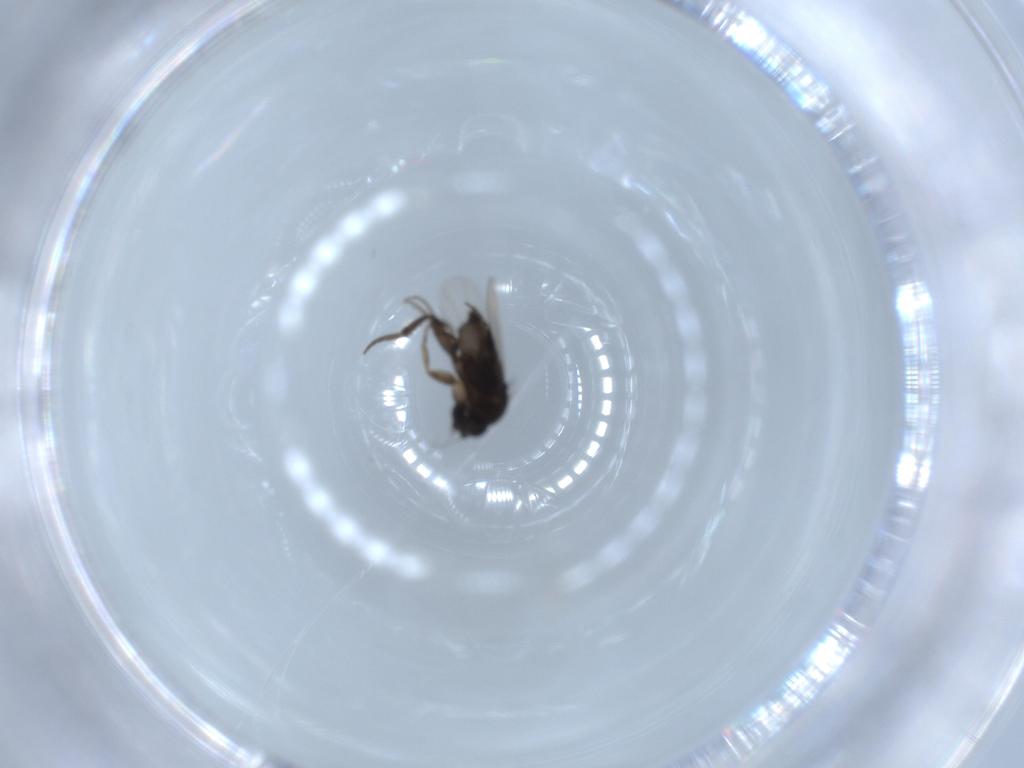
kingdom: Animalia
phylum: Arthropoda
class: Insecta
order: Diptera
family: Phoridae
